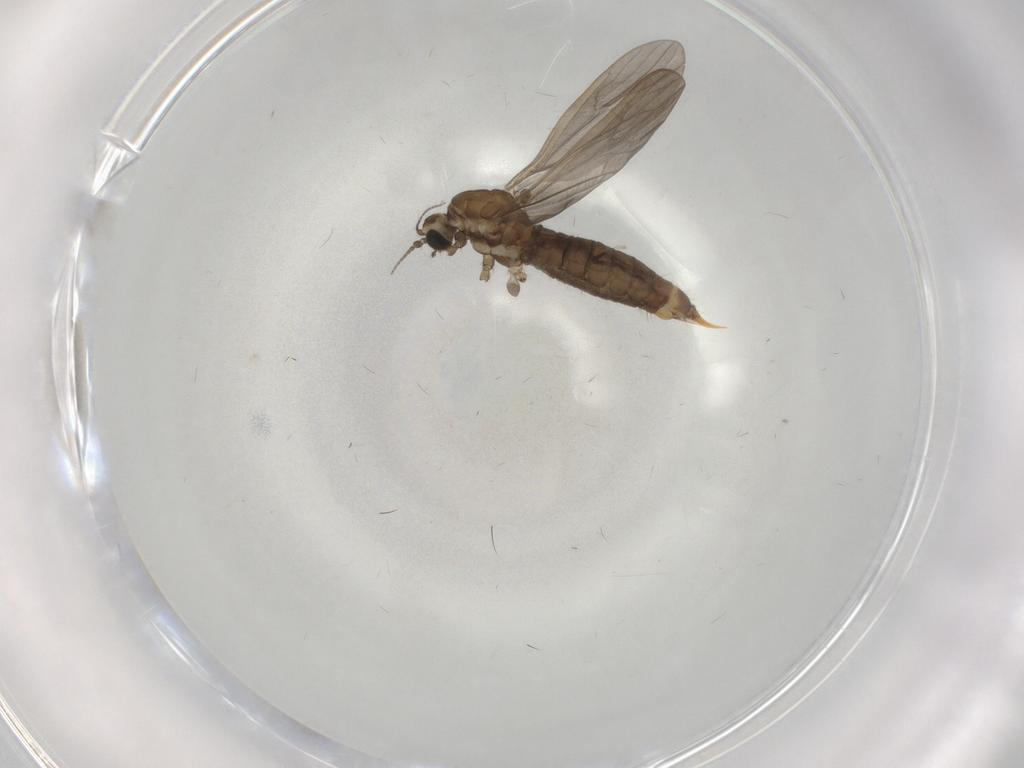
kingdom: Animalia
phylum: Arthropoda
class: Insecta
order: Diptera
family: Limoniidae
